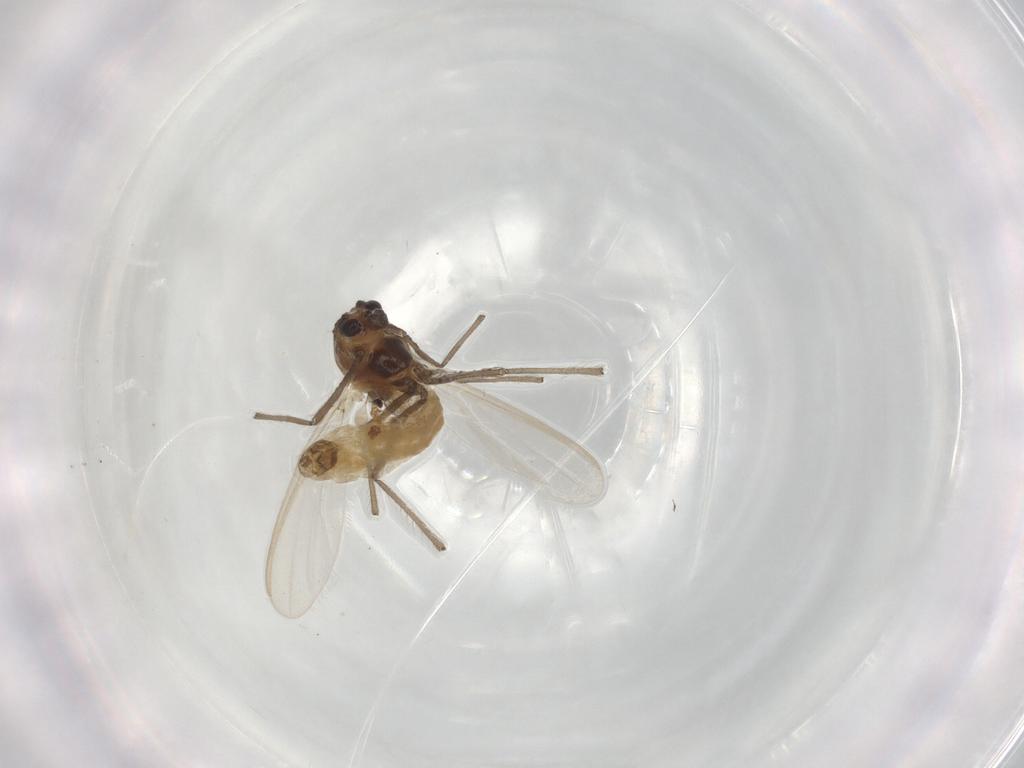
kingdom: Animalia
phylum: Arthropoda
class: Insecta
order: Diptera
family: Chironomidae
